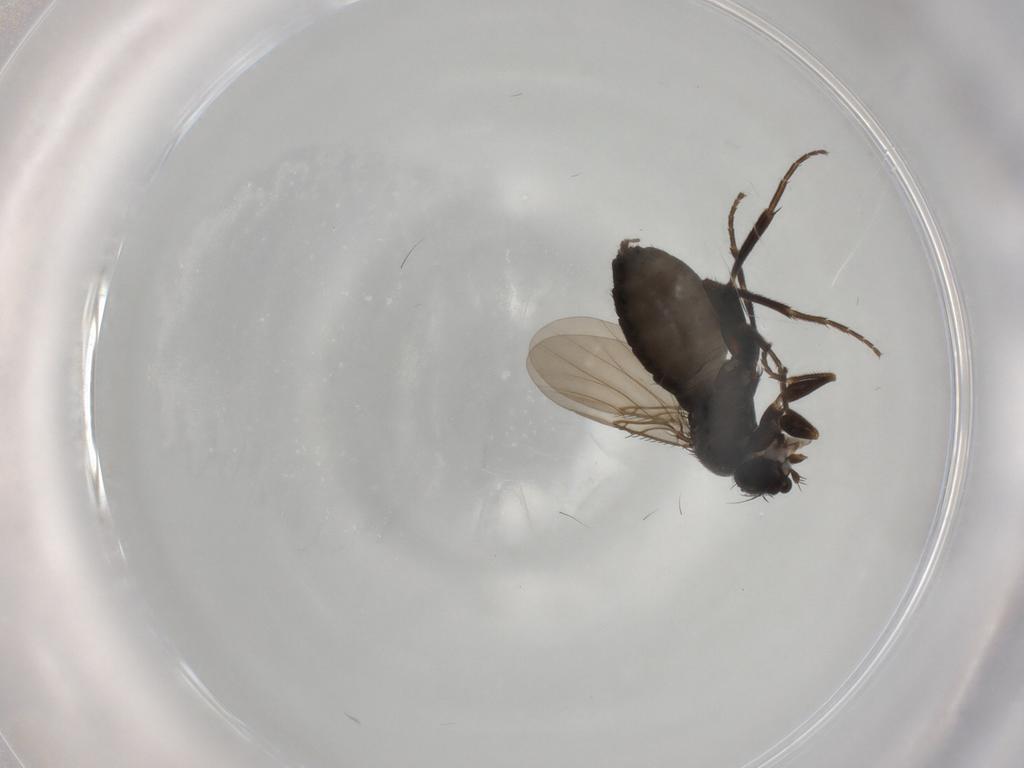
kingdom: Animalia
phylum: Arthropoda
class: Insecta
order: Diptera
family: Phoridae
